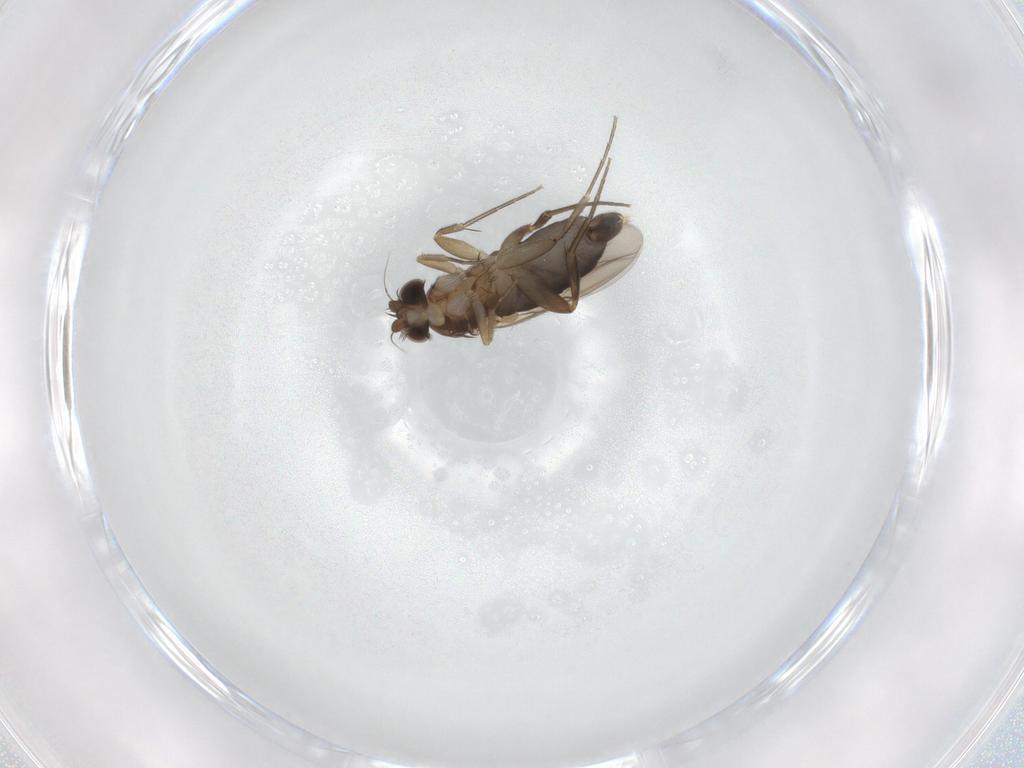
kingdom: Animalia
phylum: Arthropoda
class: Insecta
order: Diptera
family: Phoridae
